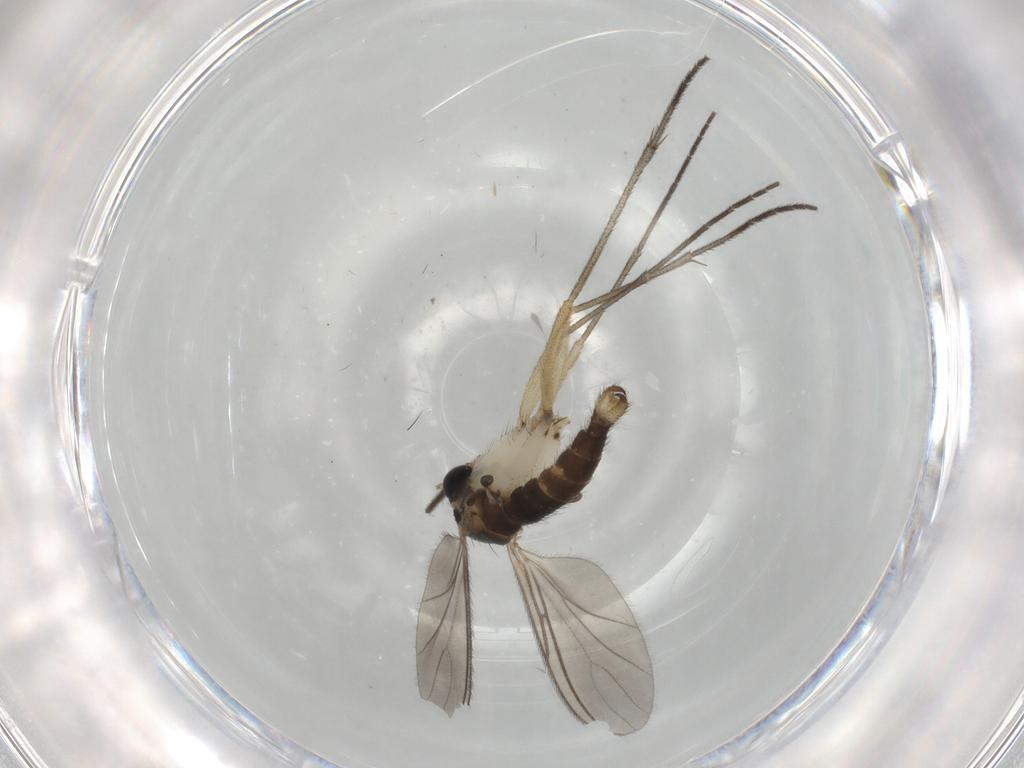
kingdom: Animalia
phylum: Arthropoda
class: Insecta
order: Diptera
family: Sciaridae
